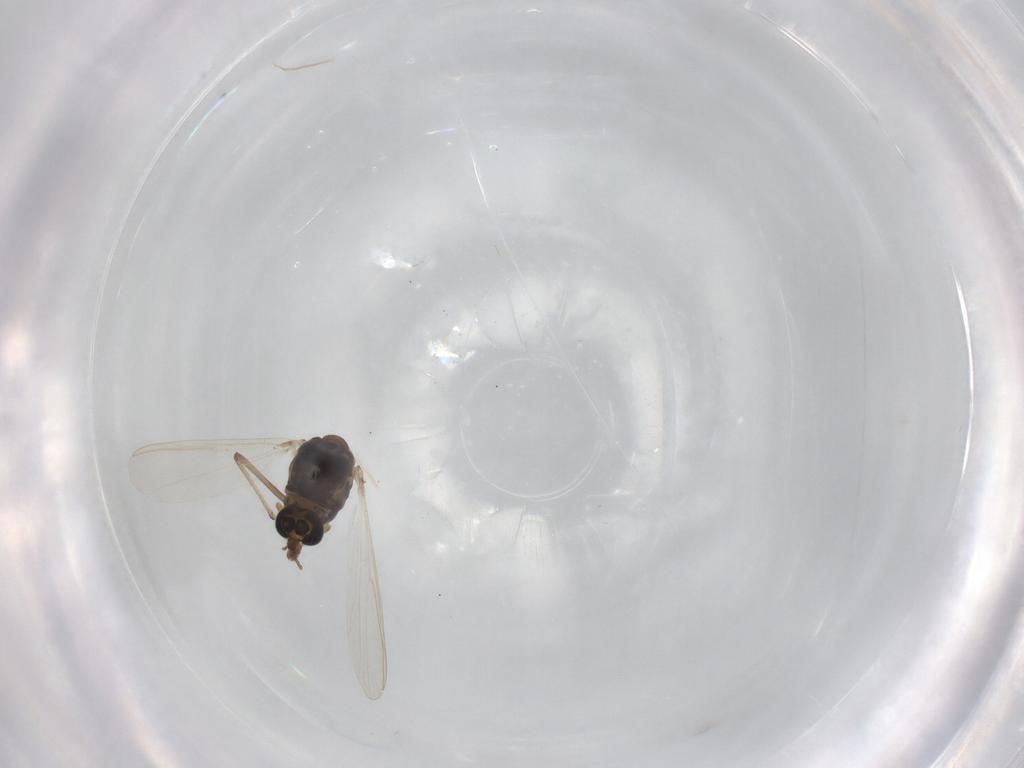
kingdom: Animalia
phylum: Arthropoda
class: Insecta
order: Diptera
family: Chironomidae
